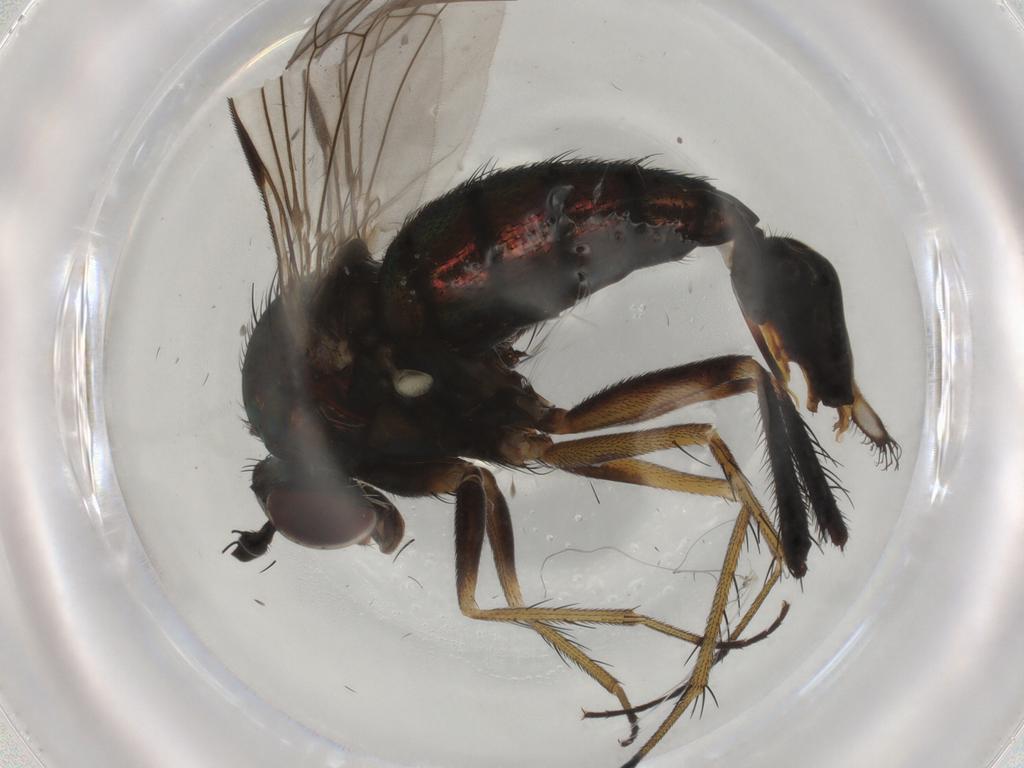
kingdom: Animalia
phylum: Arthropoda
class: Insecta
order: Diptera
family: Dolichopodidae
